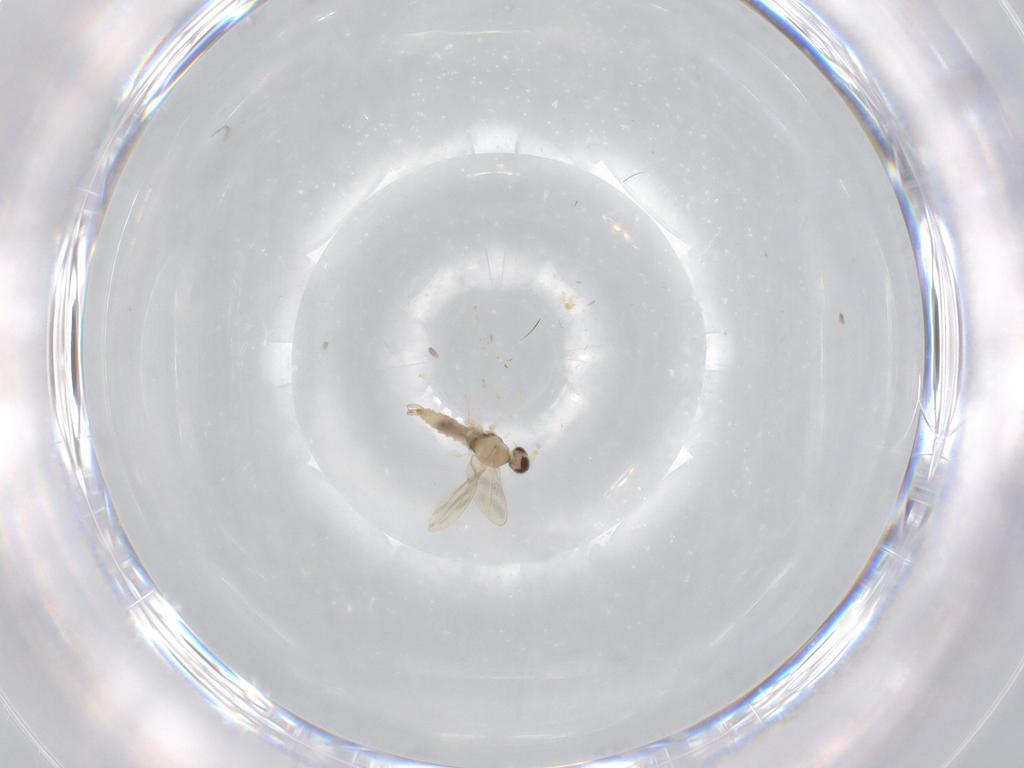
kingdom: Animalia
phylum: Arthropoda
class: Insecta
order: Diptera
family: Cecidomyiidae
